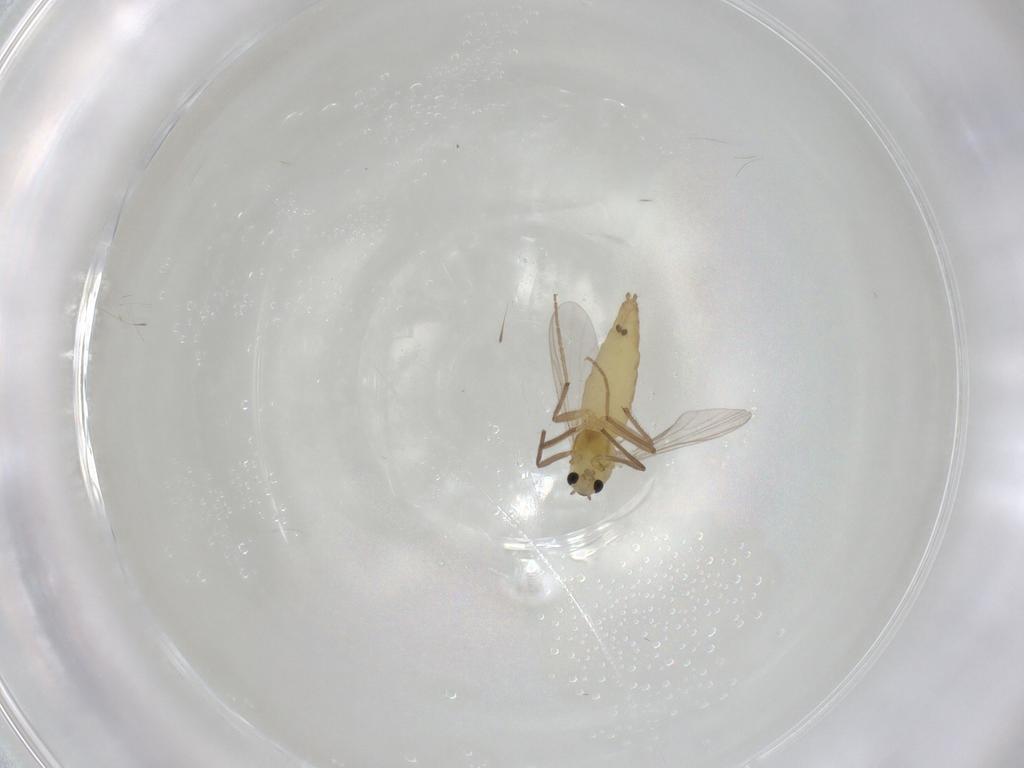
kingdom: Animalia
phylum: Arthropoda
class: Insecta
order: Diptera
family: Chironomidae
